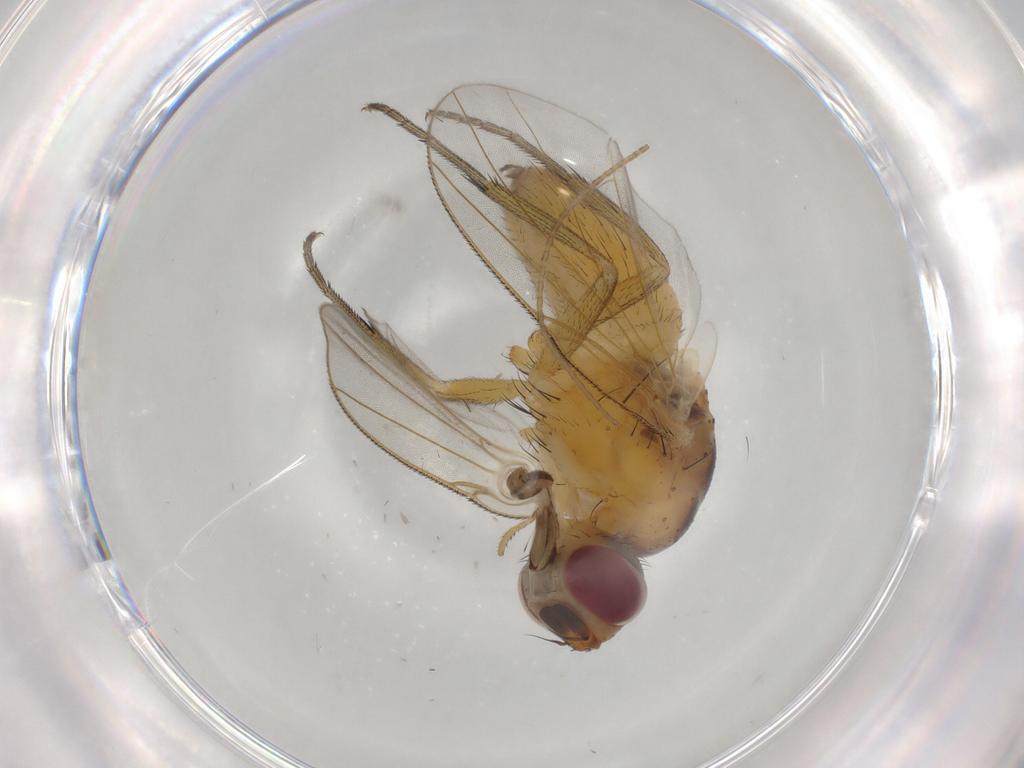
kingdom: Animalia
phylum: Arthropoda
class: Insecta
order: Diptera
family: Muscidae
